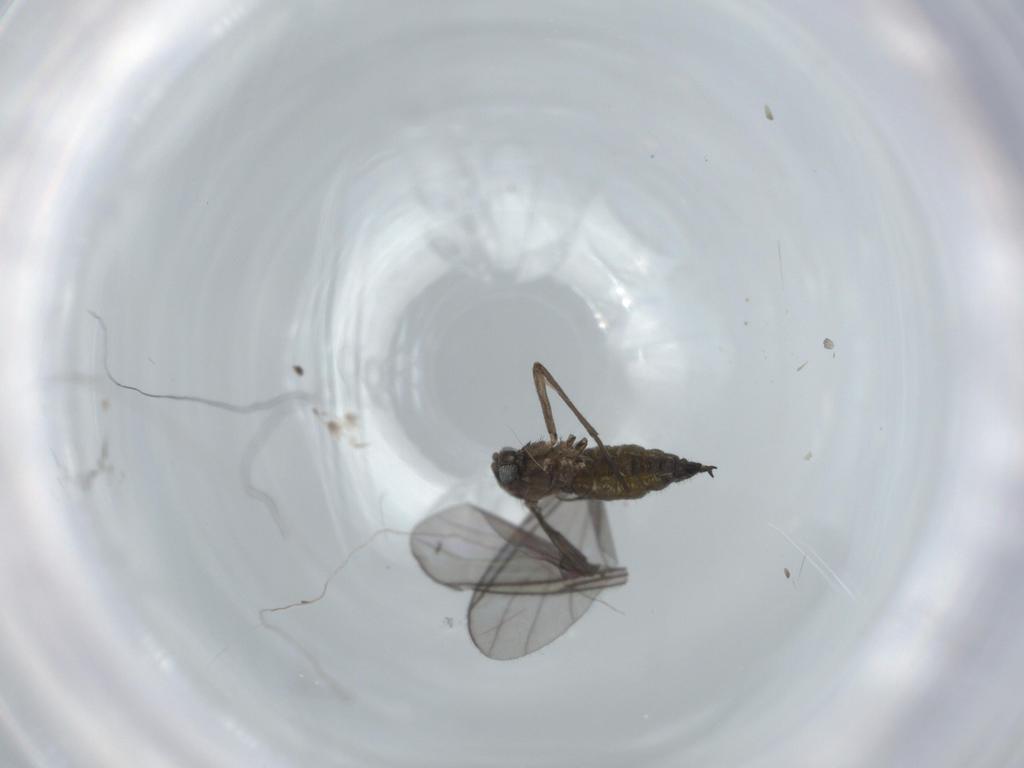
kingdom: Animalia
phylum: Arthropoda
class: Insecta
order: Diptera
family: Sciaridae
